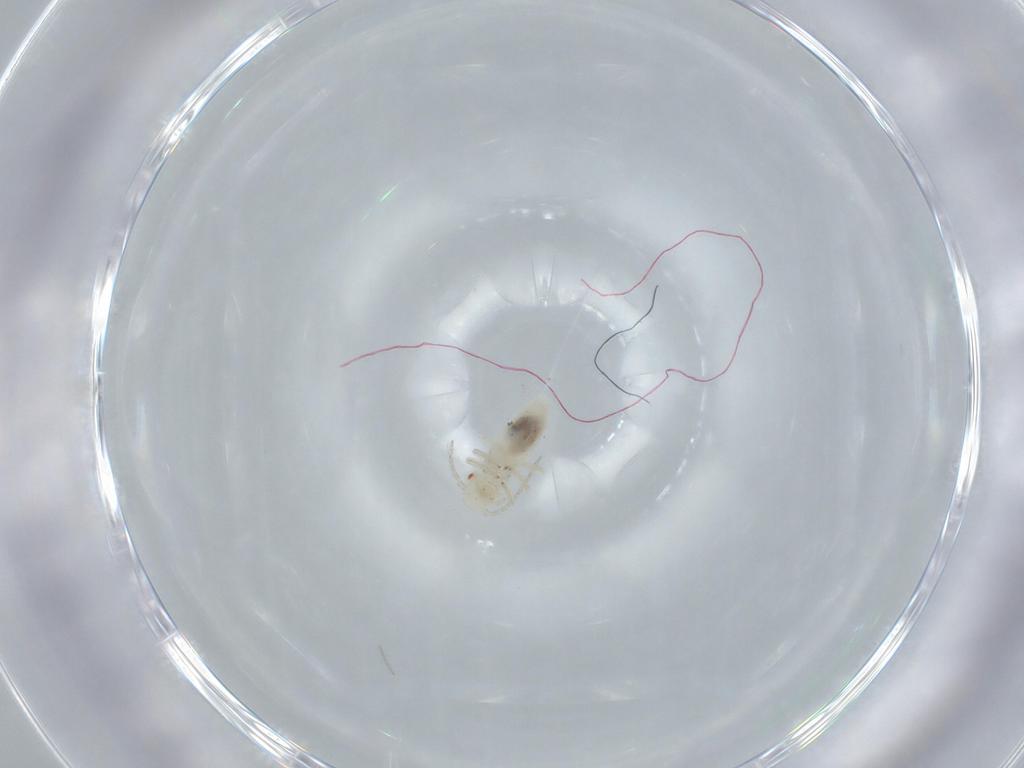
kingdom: Animalia
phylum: Arthropoda
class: Insecta
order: Psocodea
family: Caeciliusidae
